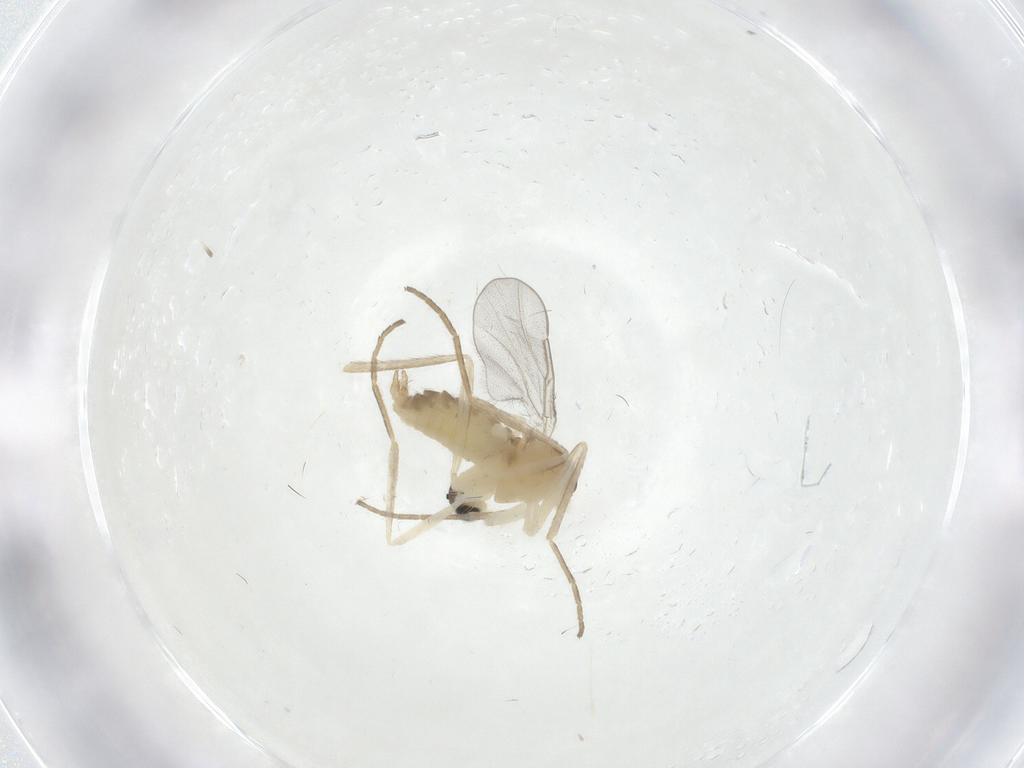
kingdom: Animalia
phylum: Arthropoda
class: Insecta
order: Diptera
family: Cecidomyiidae
